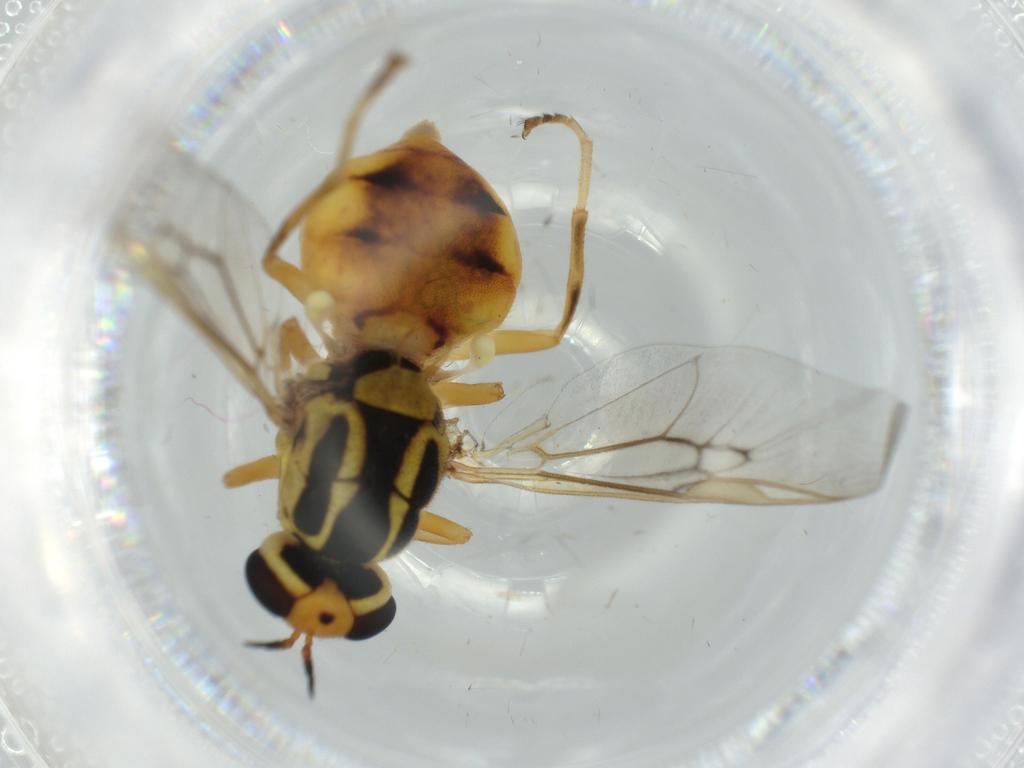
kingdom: Animalia
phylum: Arthropoda
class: Insecta
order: Diptera
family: Stratiomyidae
